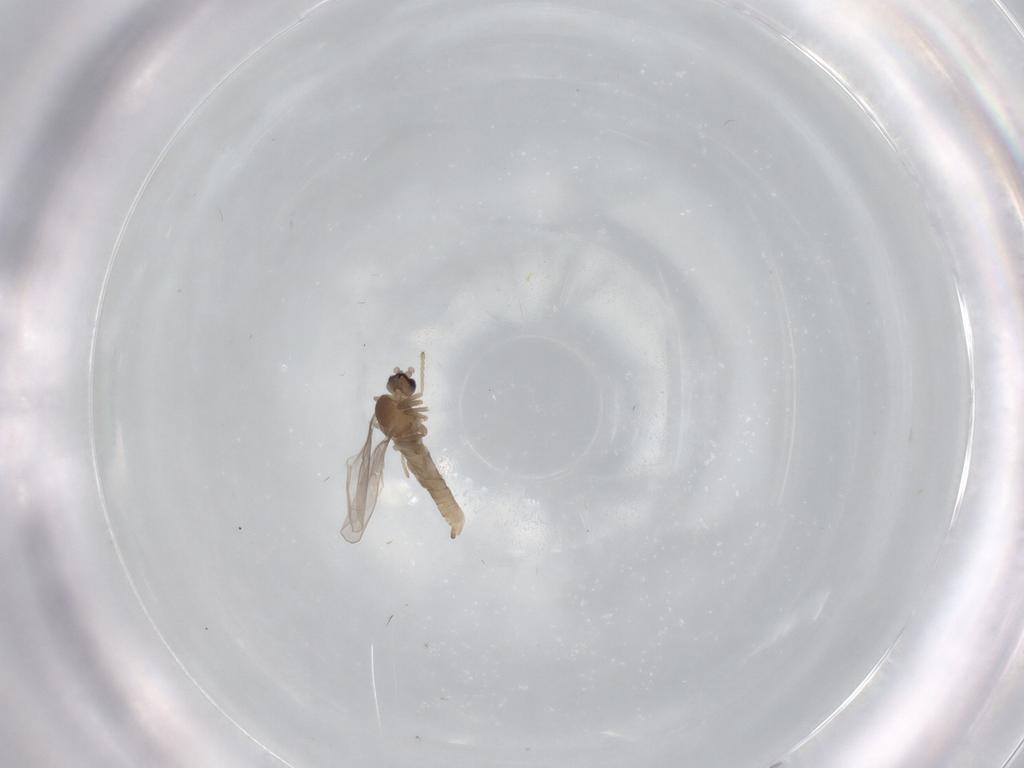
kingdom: Animalia
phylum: Arthropoda
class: Insecta
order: Diptera
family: Cecidomyiidae
